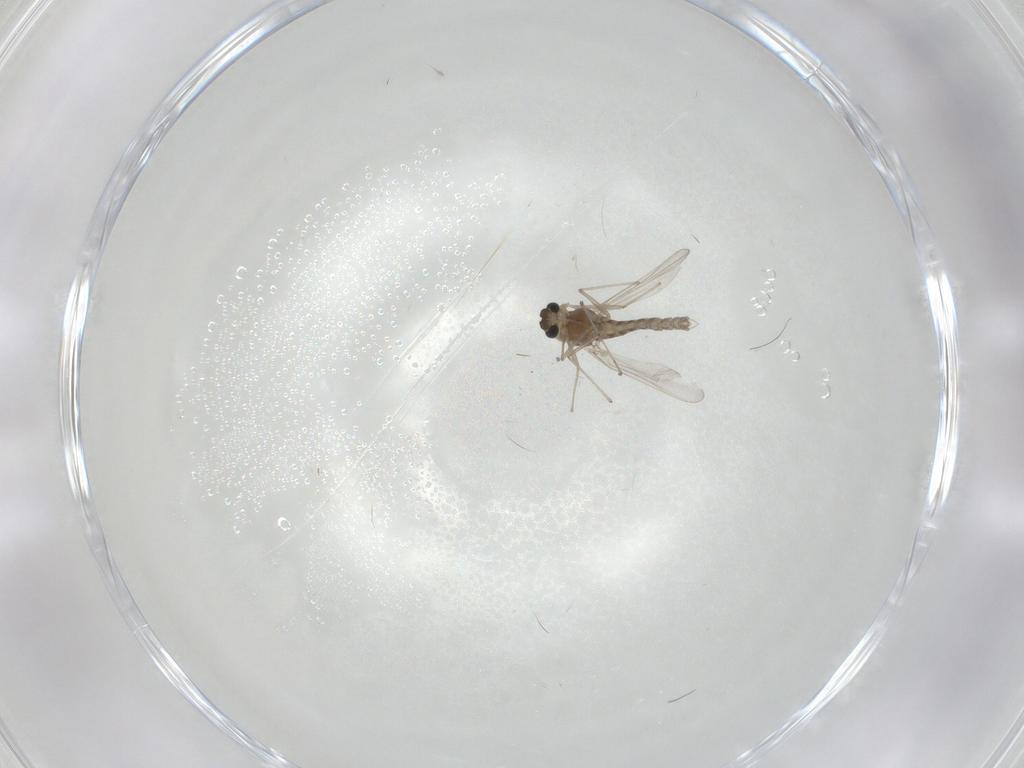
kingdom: Animalia
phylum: Arthropoda
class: Insecta
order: Diptera
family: Chironomidae
